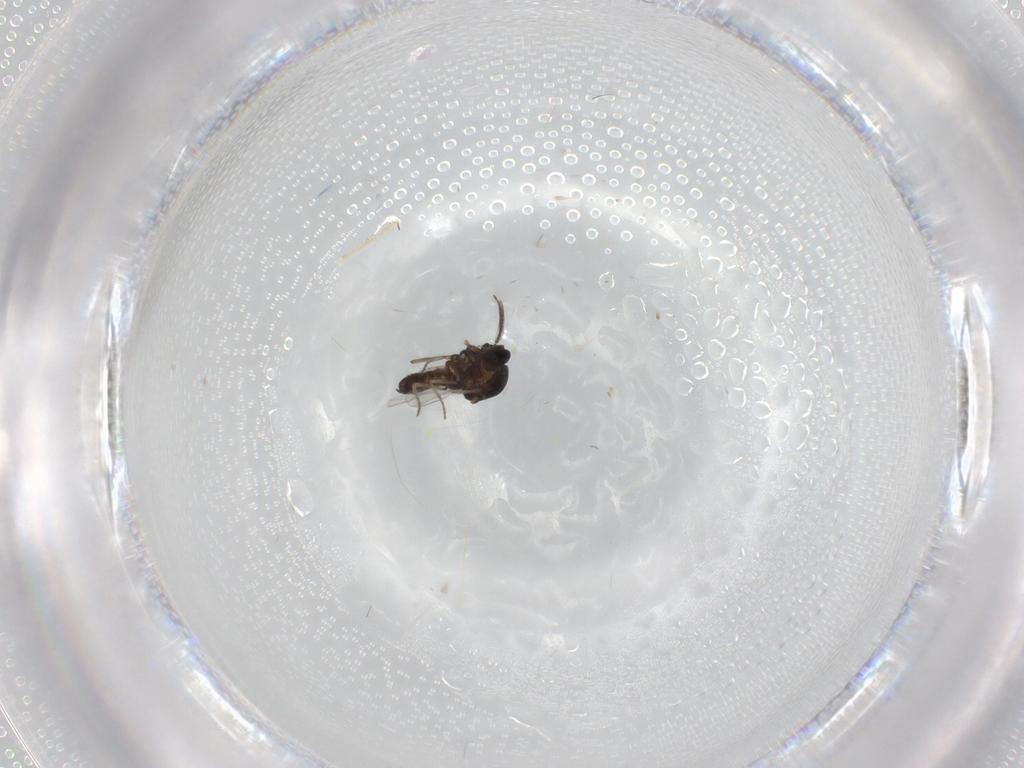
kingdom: Animalia
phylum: Arthropoda
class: Insecta
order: Diptera
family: Ceratopogonidae
